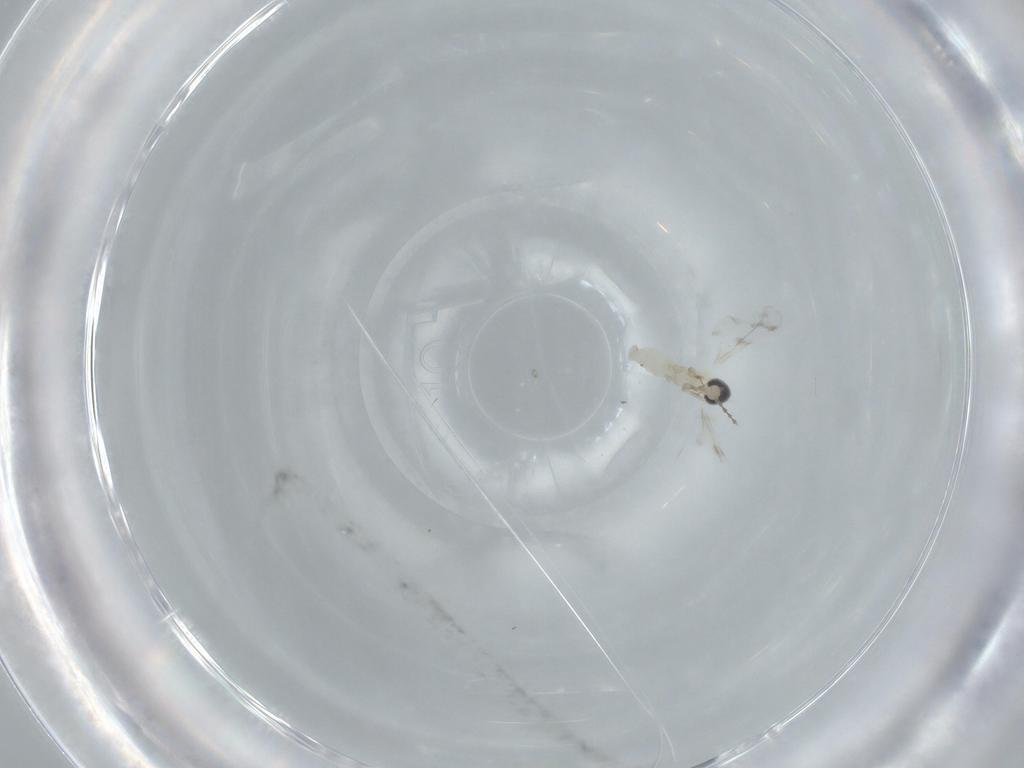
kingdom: Animalia
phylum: Arthropoda
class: Insecta
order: Diptera
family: Cecidomyiidae
